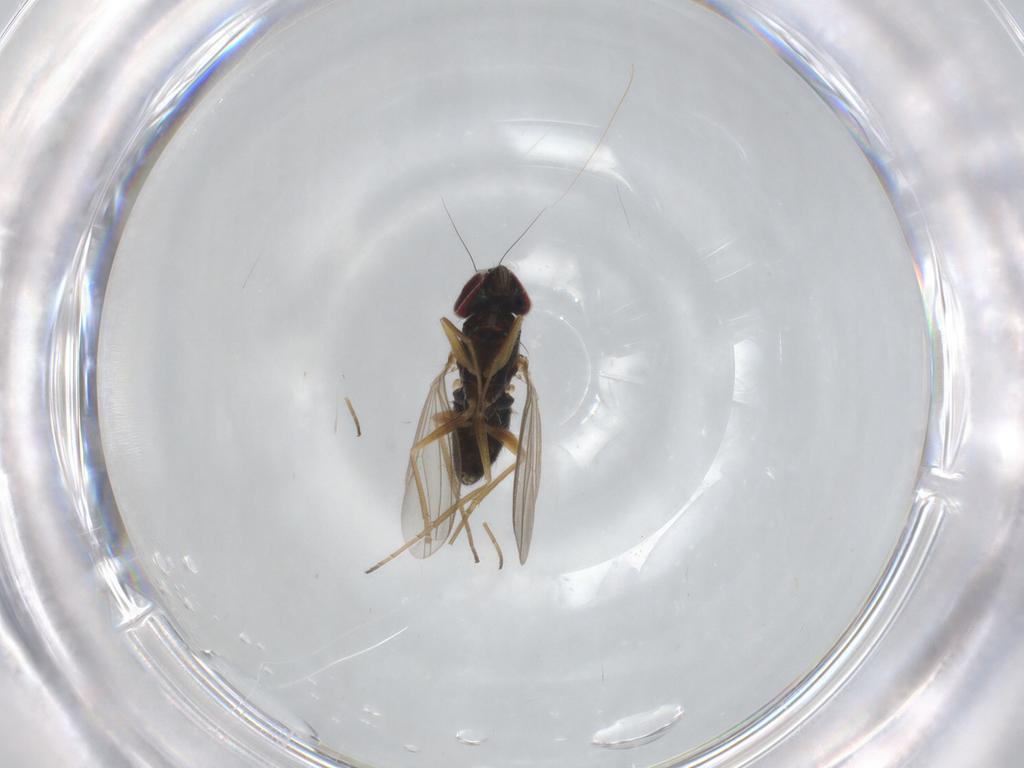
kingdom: Animalia
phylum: Arthropoda
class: Insecta
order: Diptera
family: Dolichopodidae
